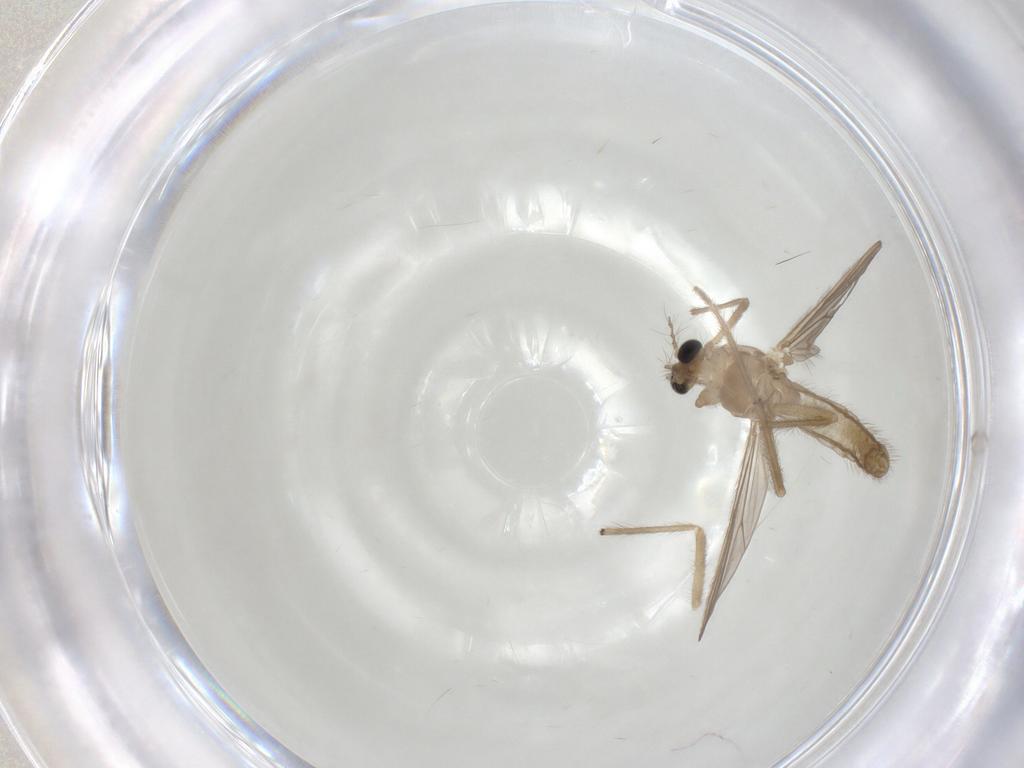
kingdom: Animalia
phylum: Arthropoda
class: Insecta
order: Diptera
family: Chironomidae
